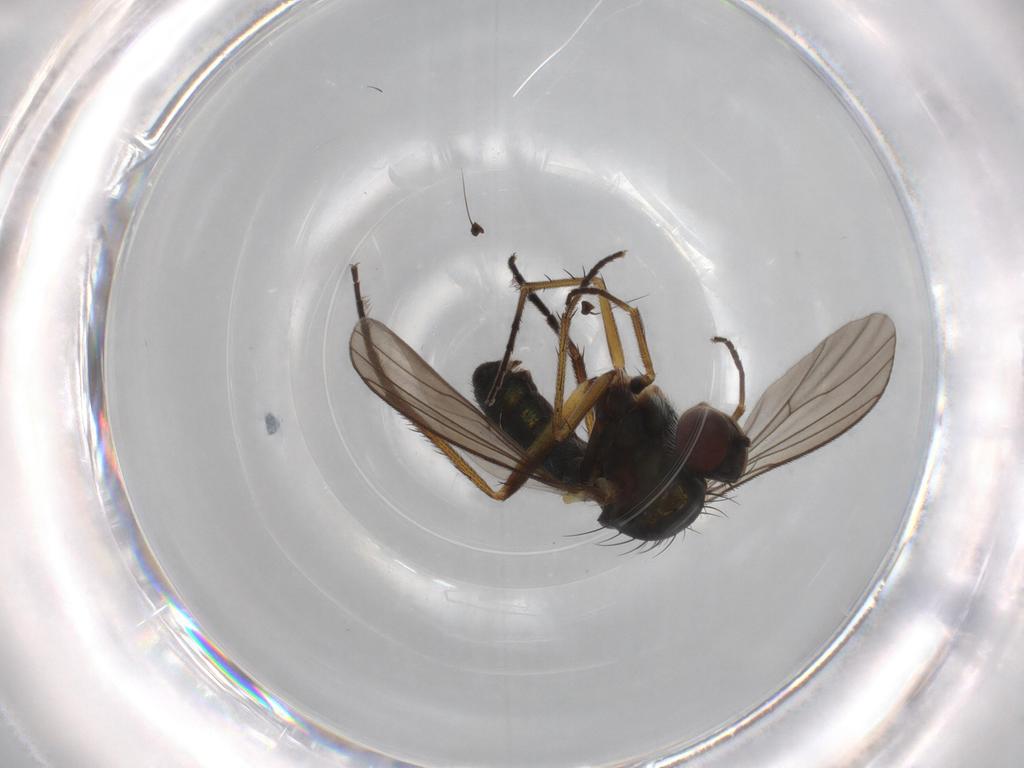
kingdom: Animalia
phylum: Arthropoda
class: Insecta
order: Diptera
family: Dolichopodidae
